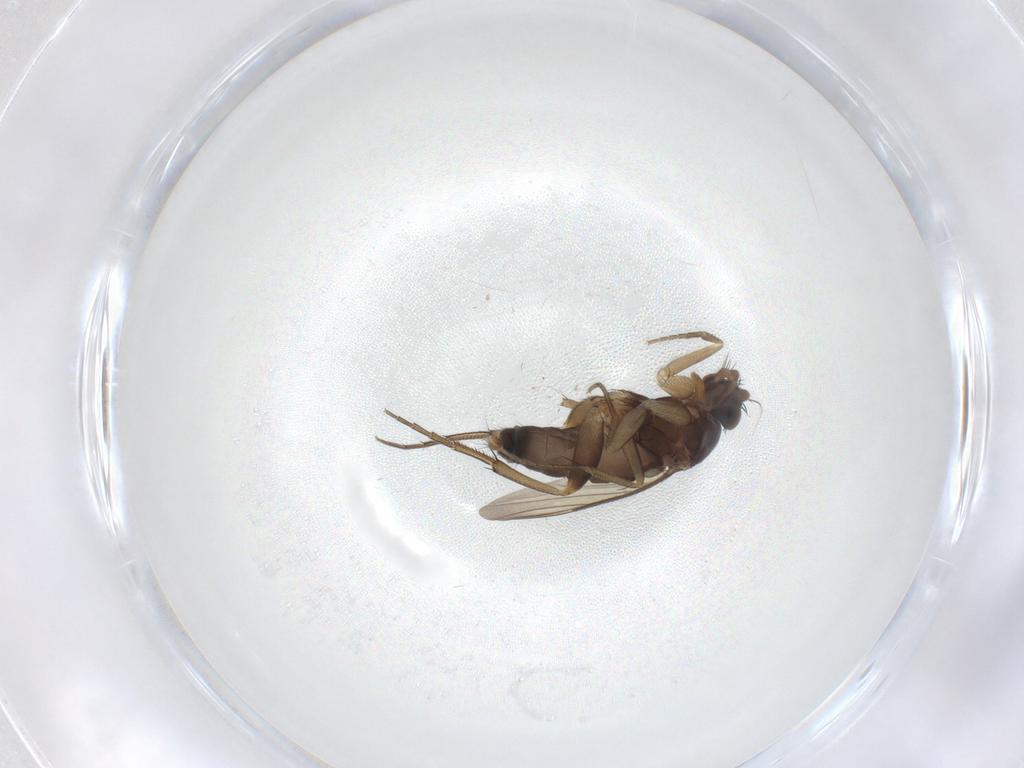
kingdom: Animalia
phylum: Arthropoda
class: Insecta
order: Diptera
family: Phoridae
